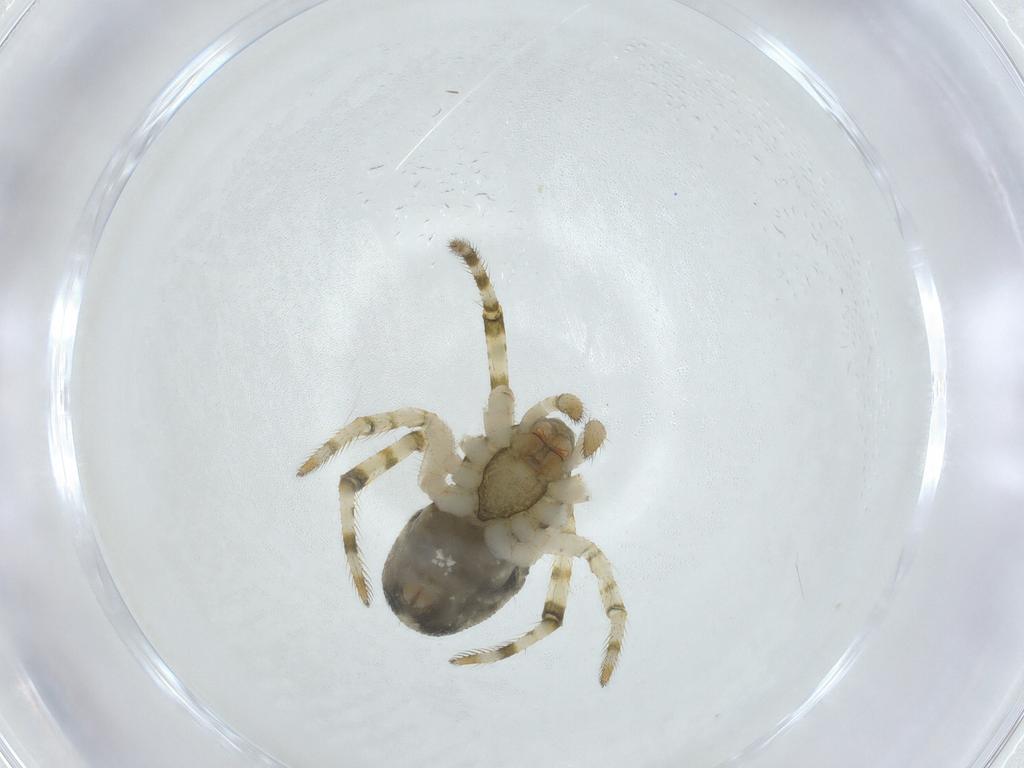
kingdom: Animalia
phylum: Arthropoda
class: Arachnida
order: Araneae
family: Theridiidae
